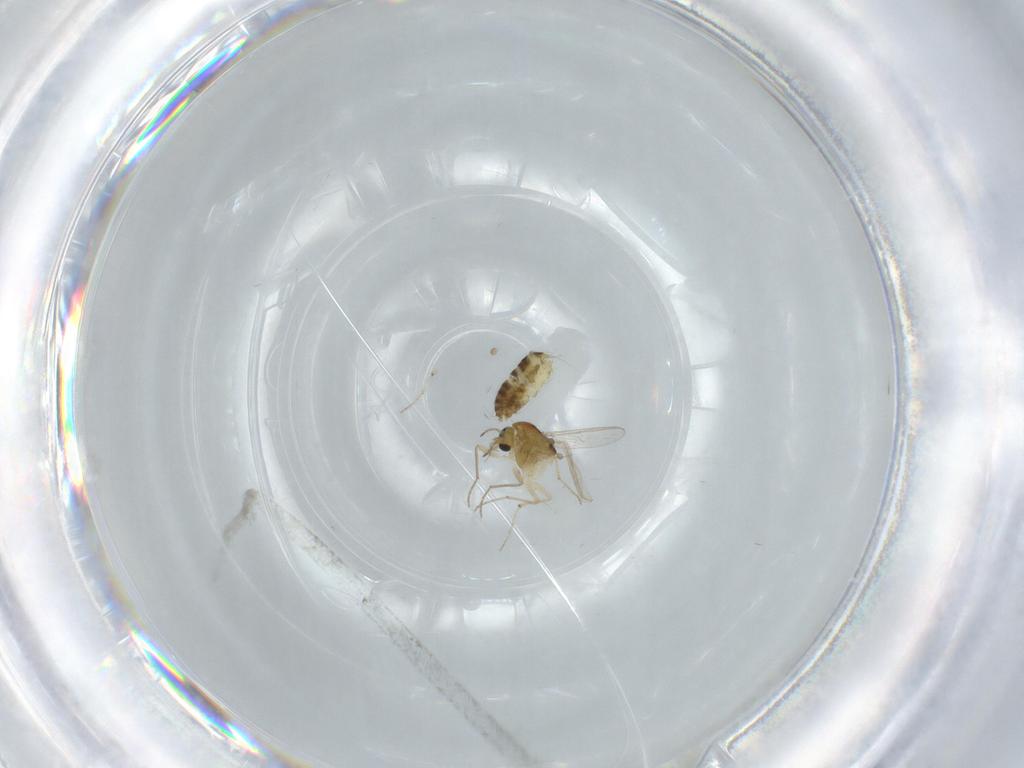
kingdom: Animalia
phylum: Arthropoda
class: Insecta
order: Diptera
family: Chironomidae
